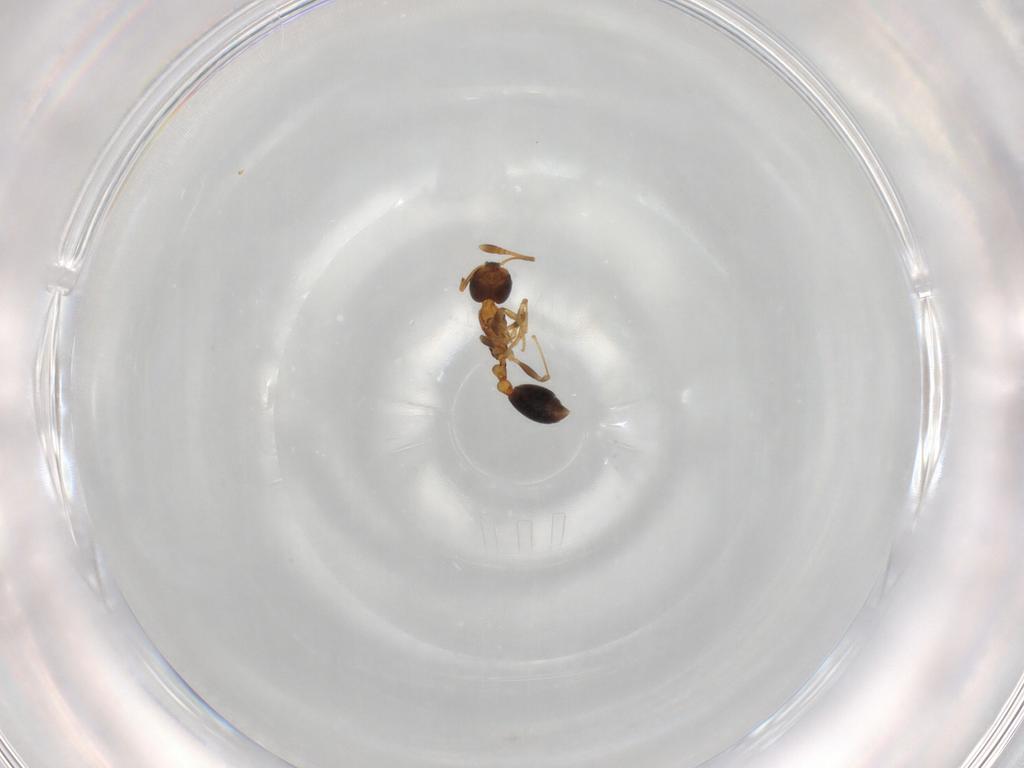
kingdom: Animalia
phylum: Arthropoda
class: Insecta
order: Hymenoptera
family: Formicidae
